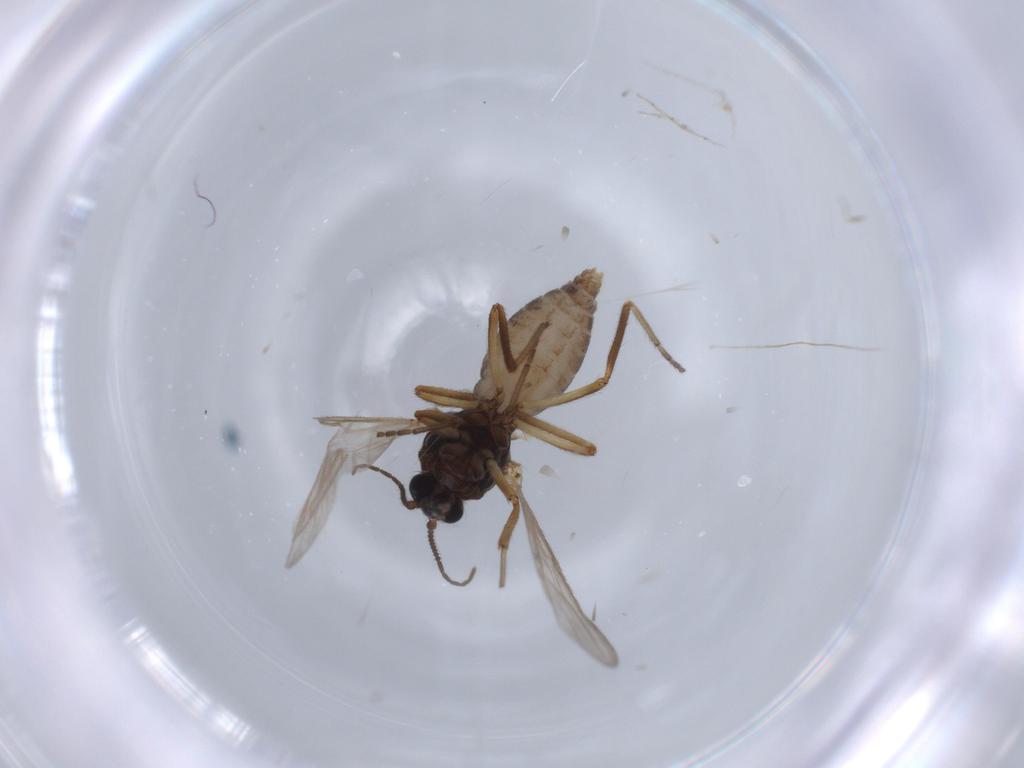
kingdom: Animalia
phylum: Arthropoda
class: Insecta
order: Diptera
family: Ceratopogonidae
